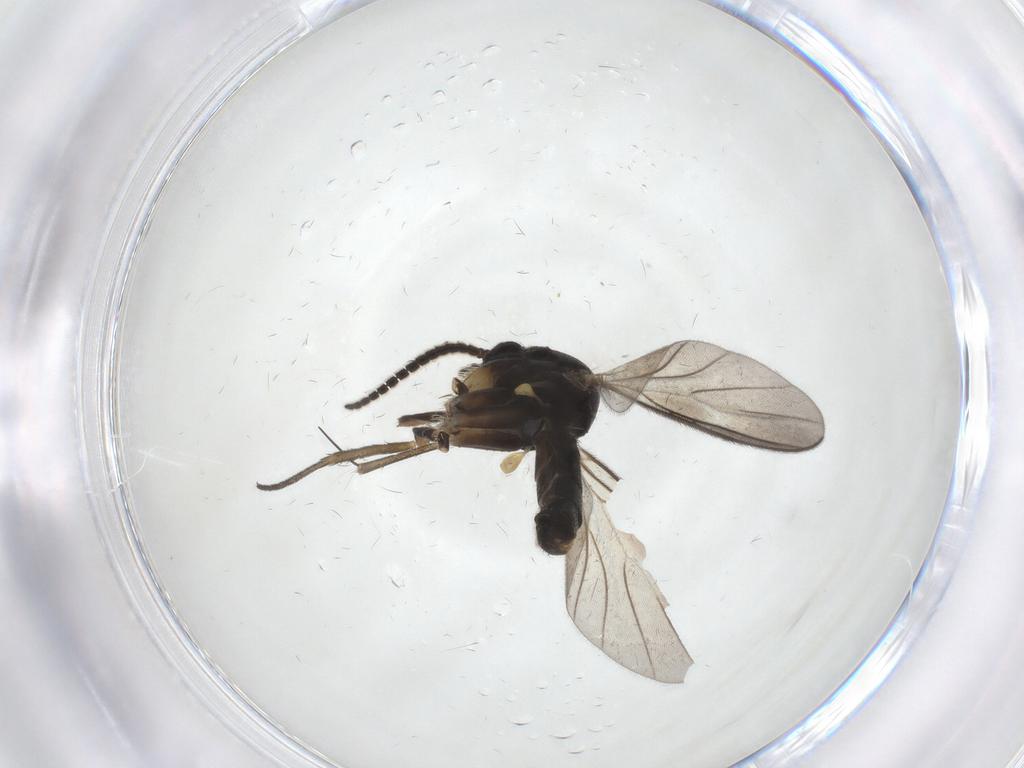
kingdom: Animalia
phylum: Arthropoda
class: Insecta
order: Diptera
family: Mycetophilidae
